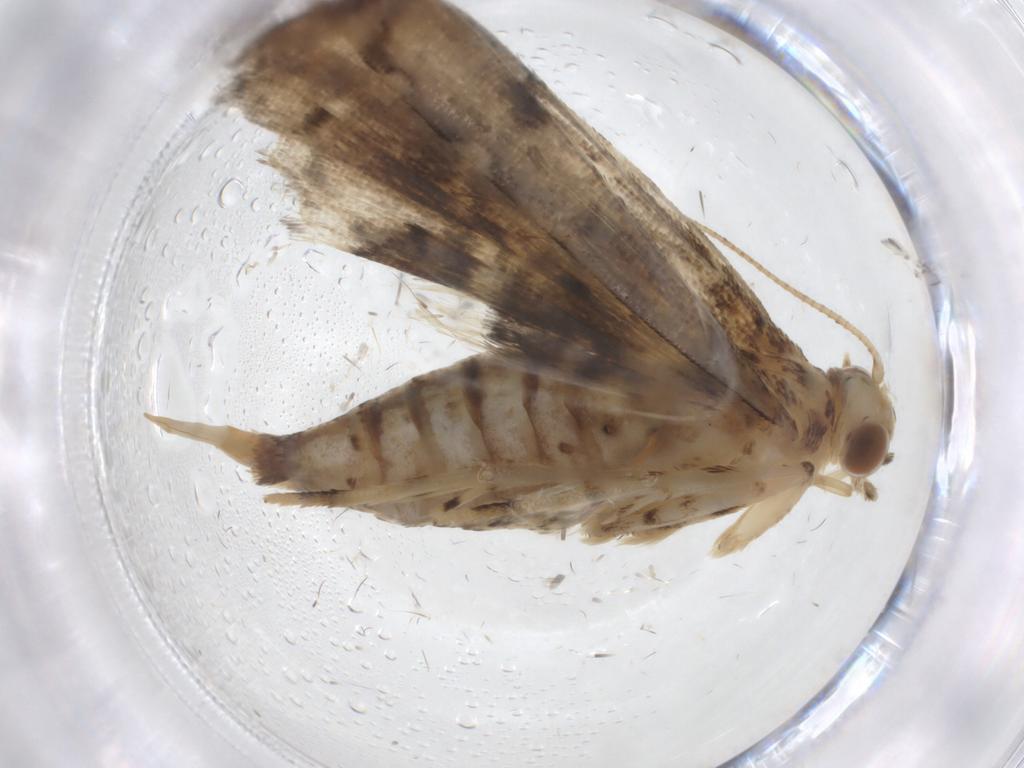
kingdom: Animalia
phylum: Arthropoda
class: Insecta
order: Lepidoptera
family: Crambidae
